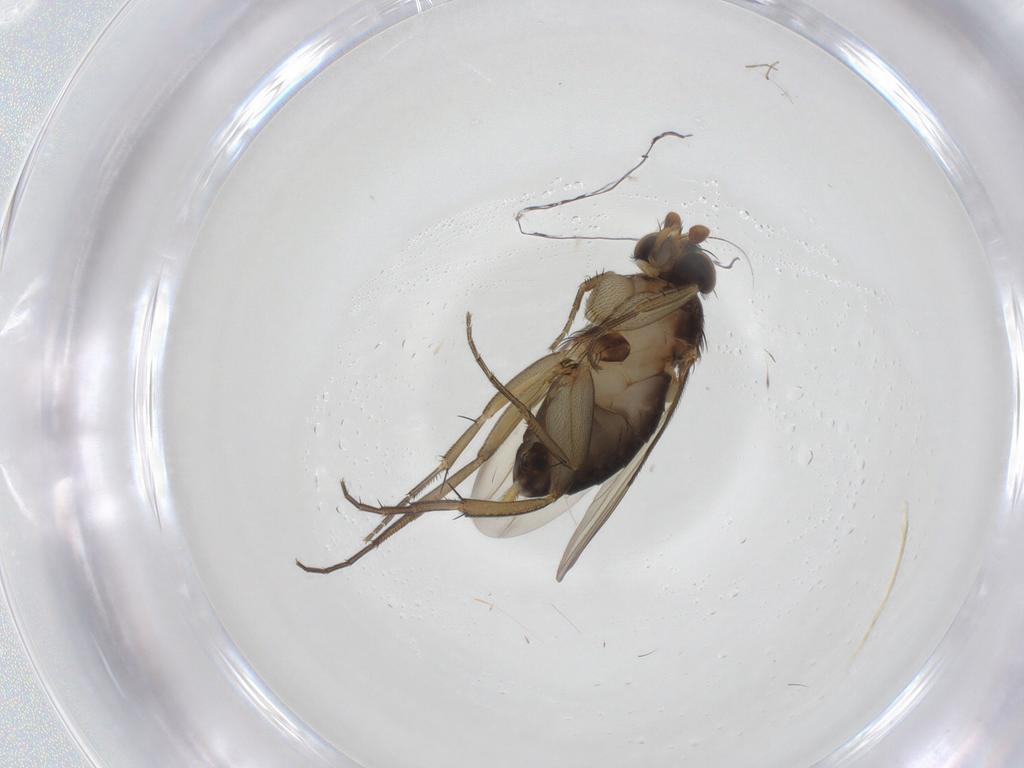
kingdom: Animalia
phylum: Arthropoda
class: Insecta
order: Diptera
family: Phoridae
